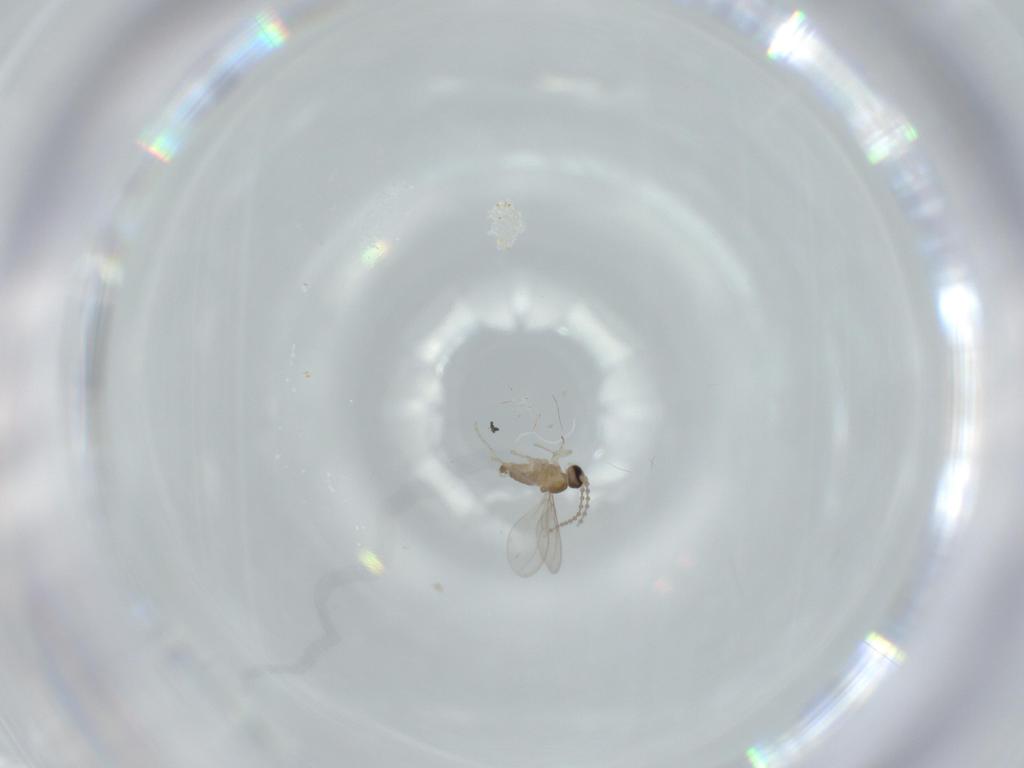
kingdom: Animalia
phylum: Arthropoda
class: Insecta
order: Diptera
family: Cecidomyiidae
